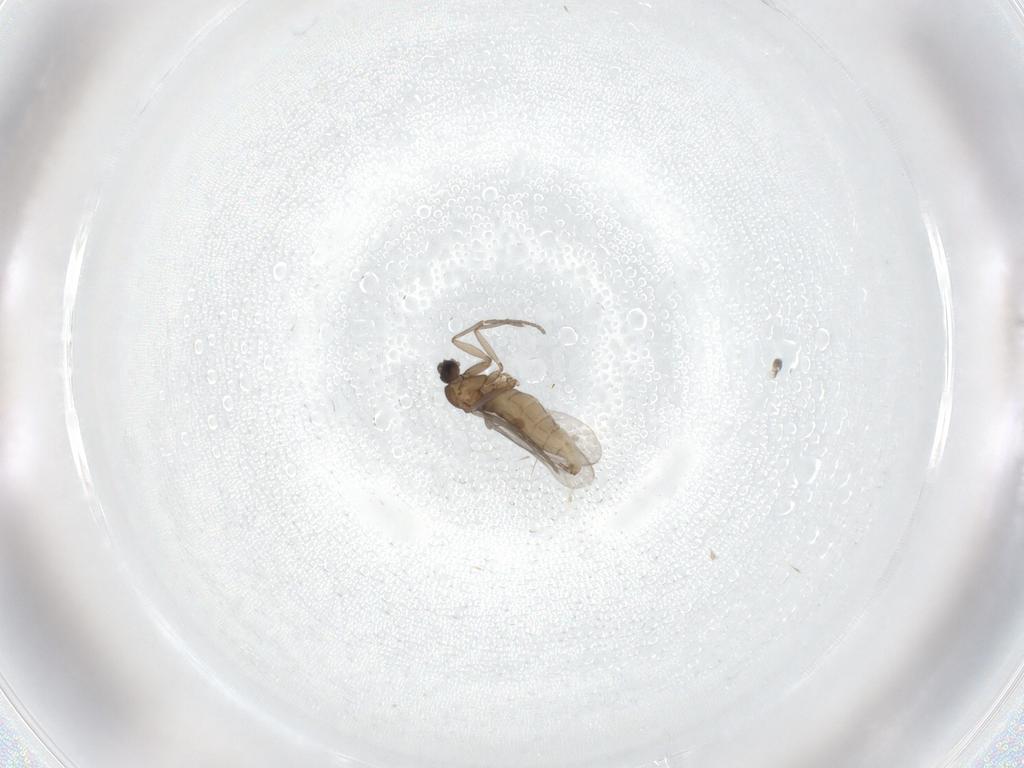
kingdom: Animalia
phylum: Arthropoda
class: Insecta
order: Diptera
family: Sciaridae
